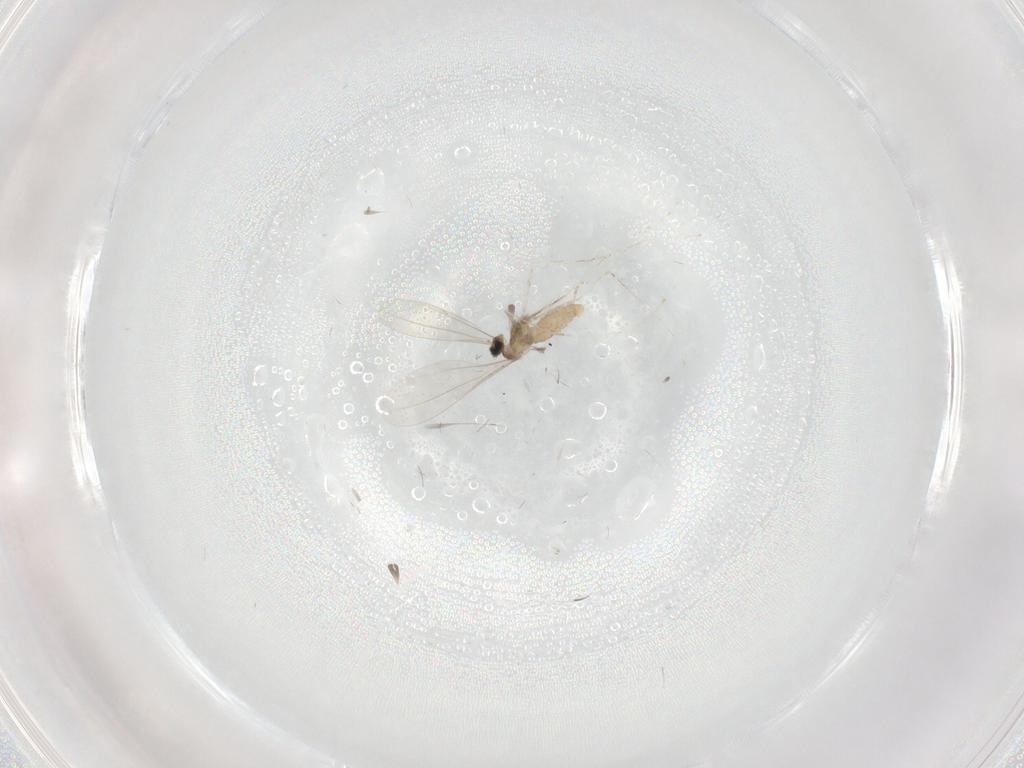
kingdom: Animalia
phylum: Arthropoda
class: Insecta
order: Diptera
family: Cecidomyiidae
